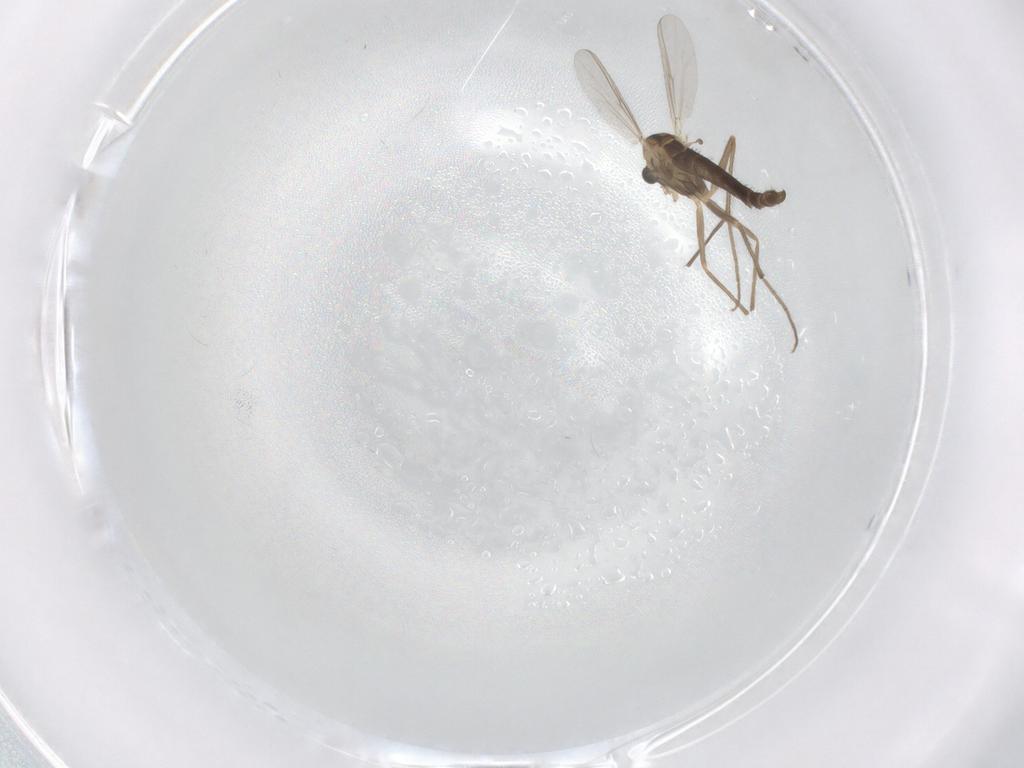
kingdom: Animalia
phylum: Arthropoda
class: Insecta
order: Diptera
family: Chironomidae
